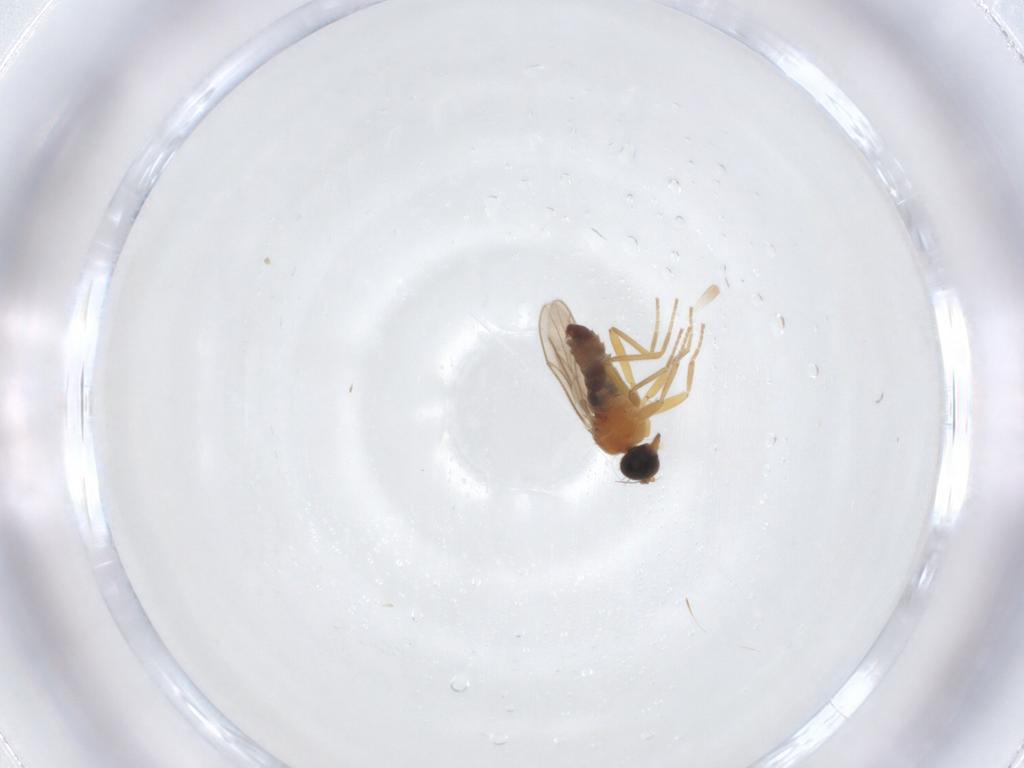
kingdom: Animalia
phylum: Arthropoda
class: Insecta
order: Diptera
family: Hybotidae
